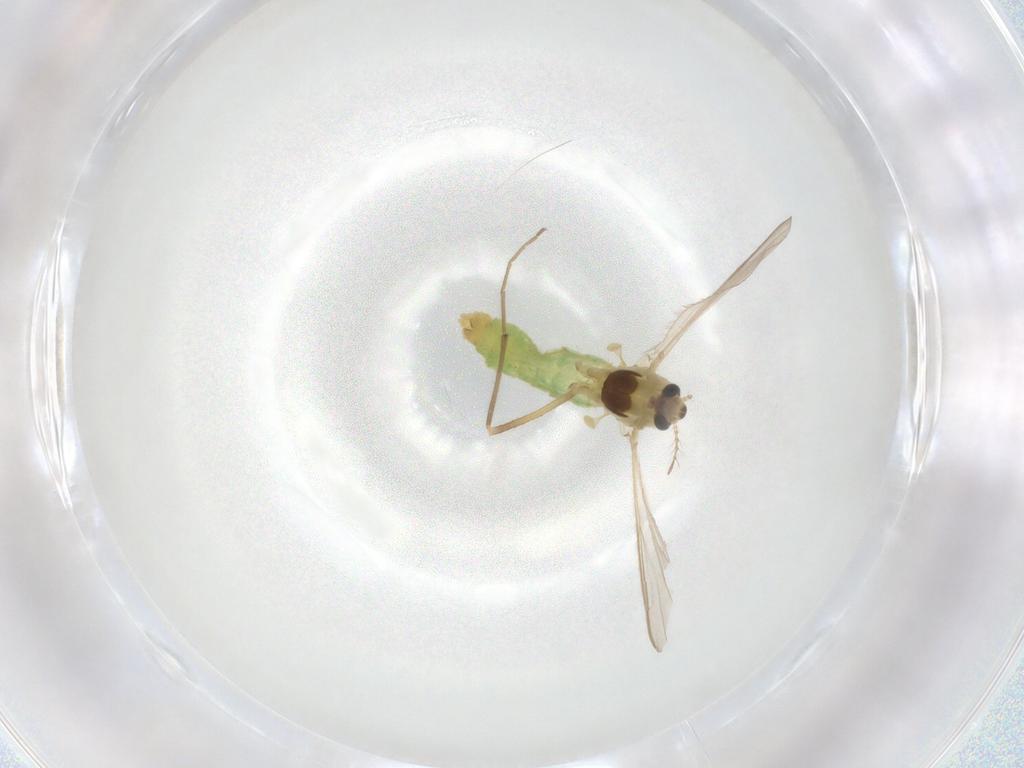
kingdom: Animalia
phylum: Arthropoda
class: Insecta
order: Diptera
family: Chironomidae
